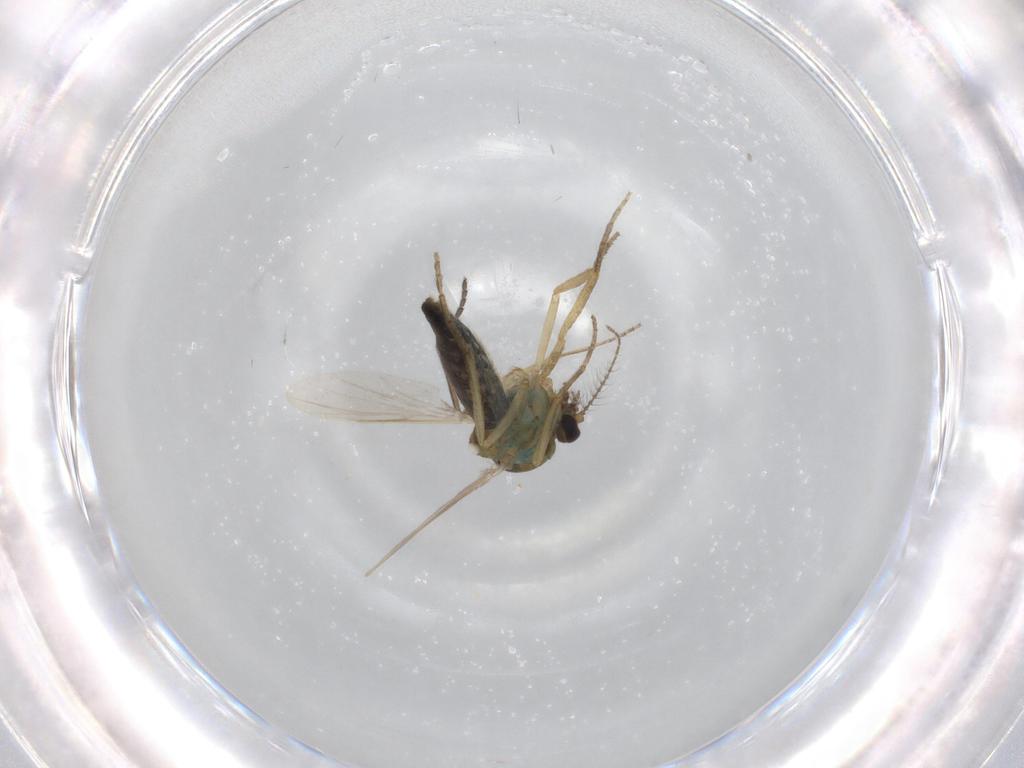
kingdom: Animalia
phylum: Arthropoda
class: Insecta
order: Diptera
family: Ceratopogonidae
